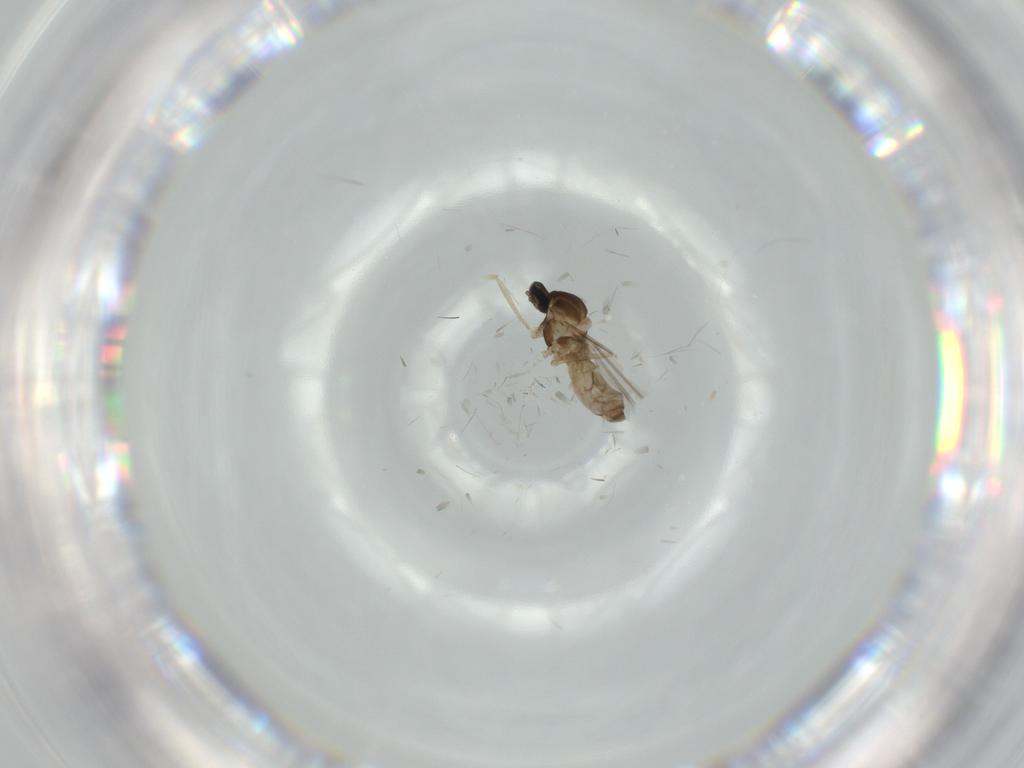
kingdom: Animalia
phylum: Arthropoda
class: Insecta
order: Diptera
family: Cecidomyiidae
